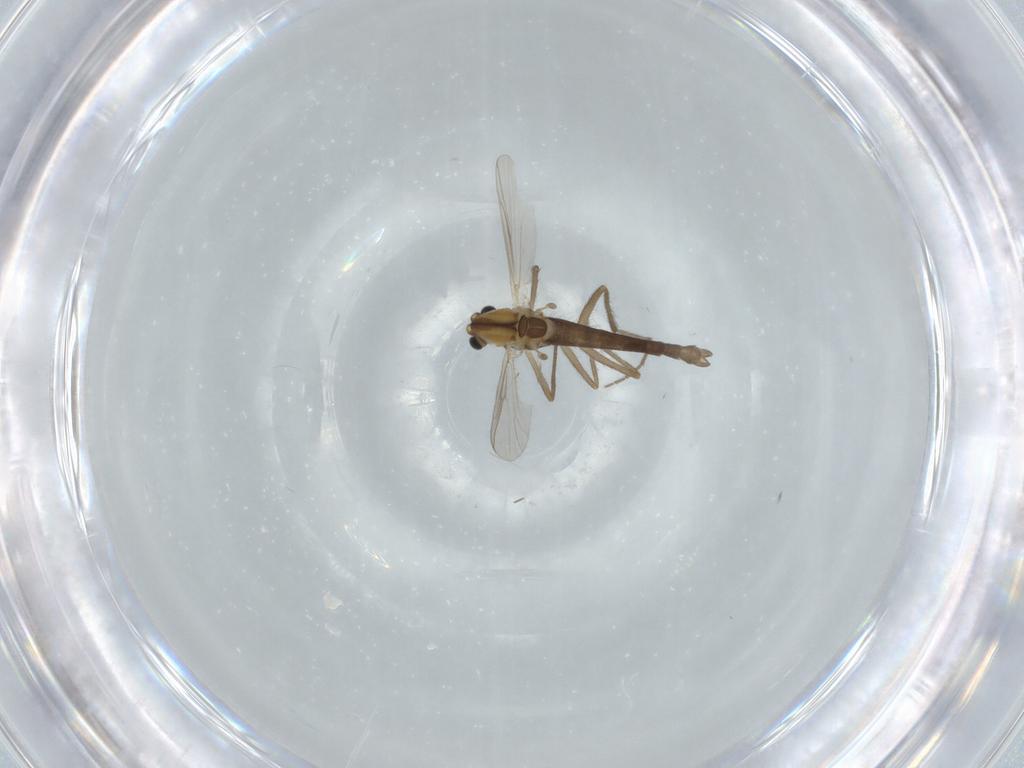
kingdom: Animalia
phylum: Arthropoda
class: Insecta
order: Diptera
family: Chironomidae
